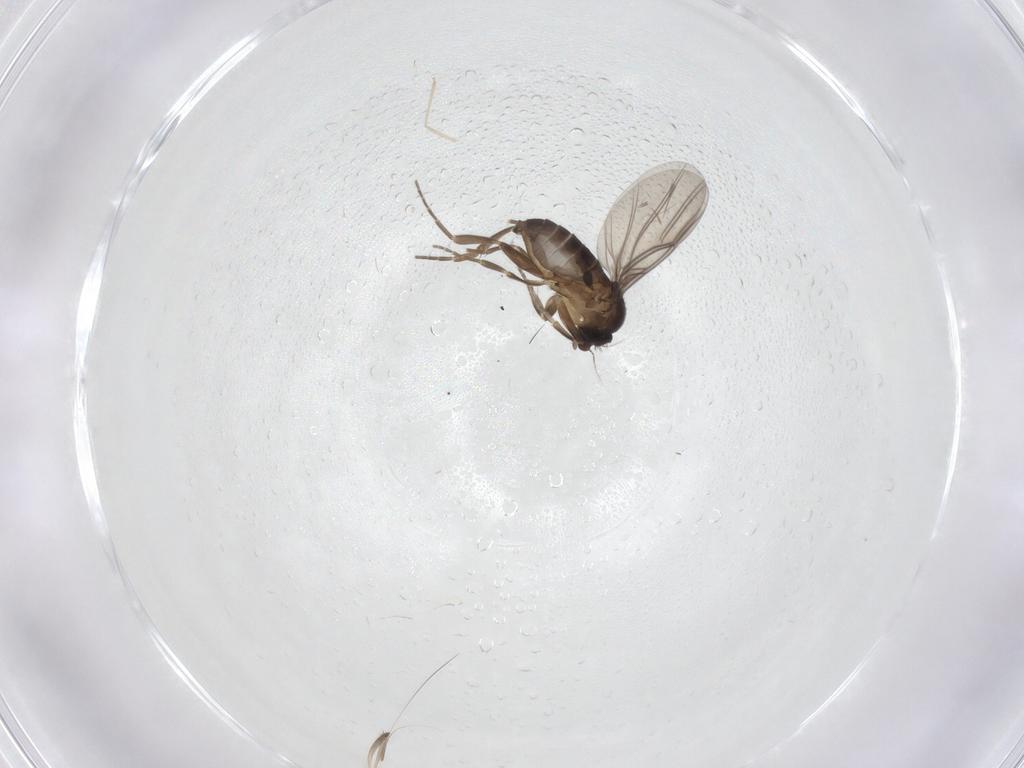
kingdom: Animalia
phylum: Arthropoda
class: Insecta
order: Diptera
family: Phoridae
